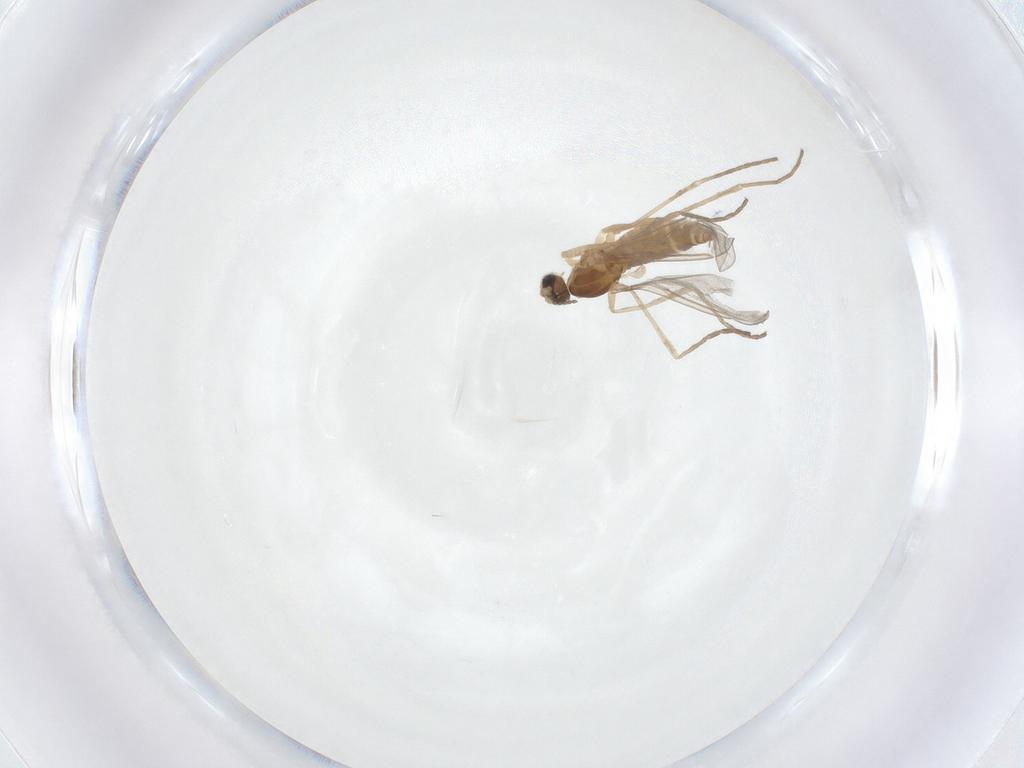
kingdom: Animalia
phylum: Arthropoda
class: Insecta
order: Diptera
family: Cecidomyiidae
